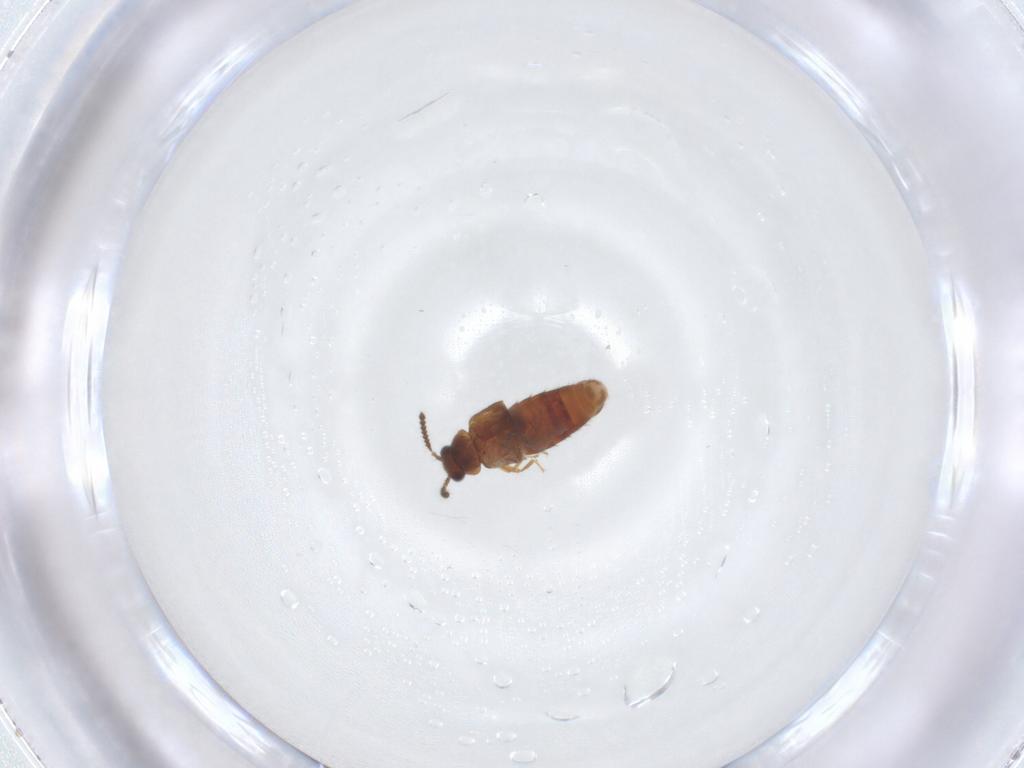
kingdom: Animalia
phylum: Arthropoda
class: Insecta
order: Coleoptera
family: Staphylinidae
